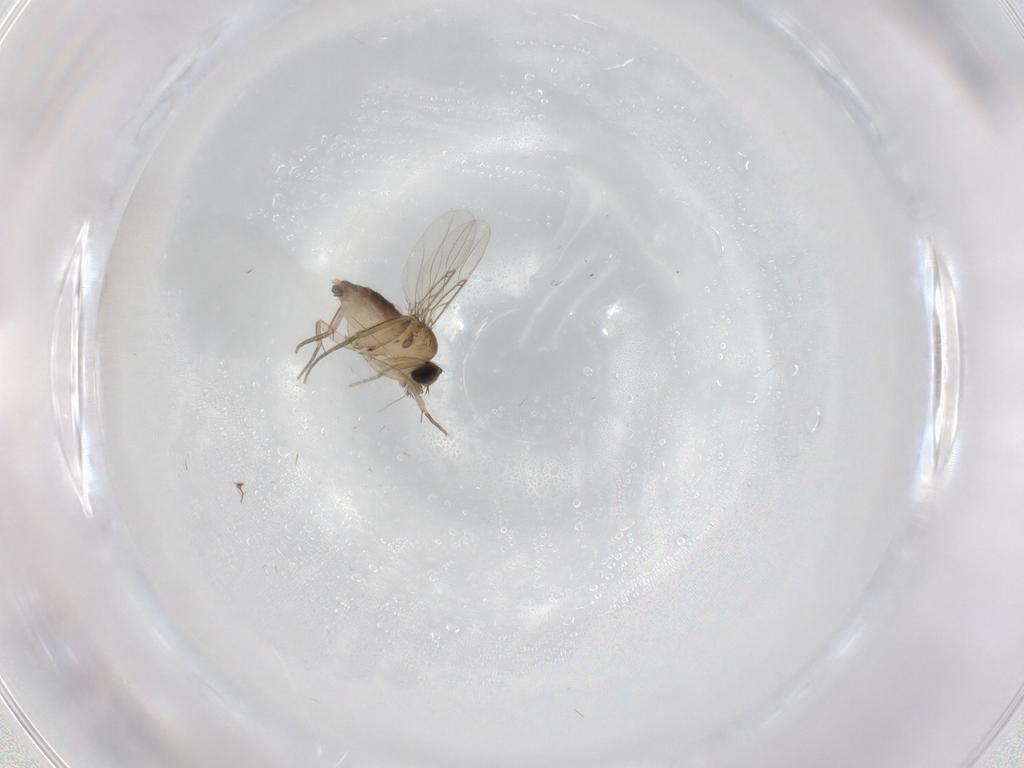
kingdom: Animalia
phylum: Arthropoda
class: Insecta
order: Diptera
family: Phoridae
